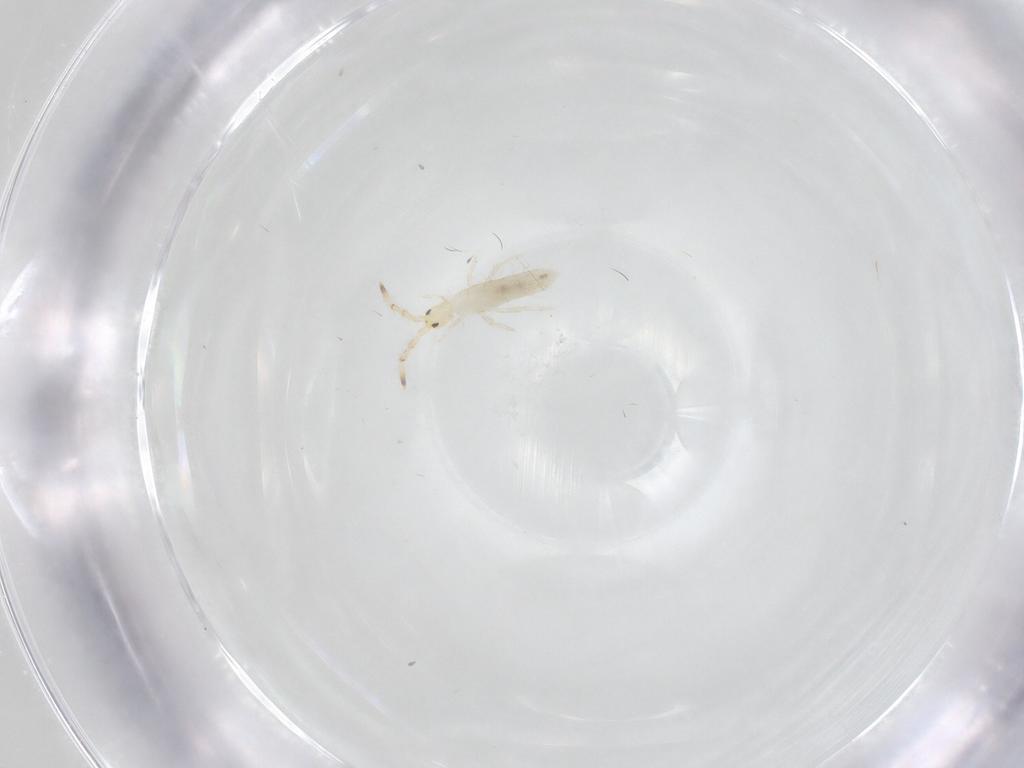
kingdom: Animalia
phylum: Arthropoda
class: Collembola
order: Entomobryomorpha
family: Entomobryidae
